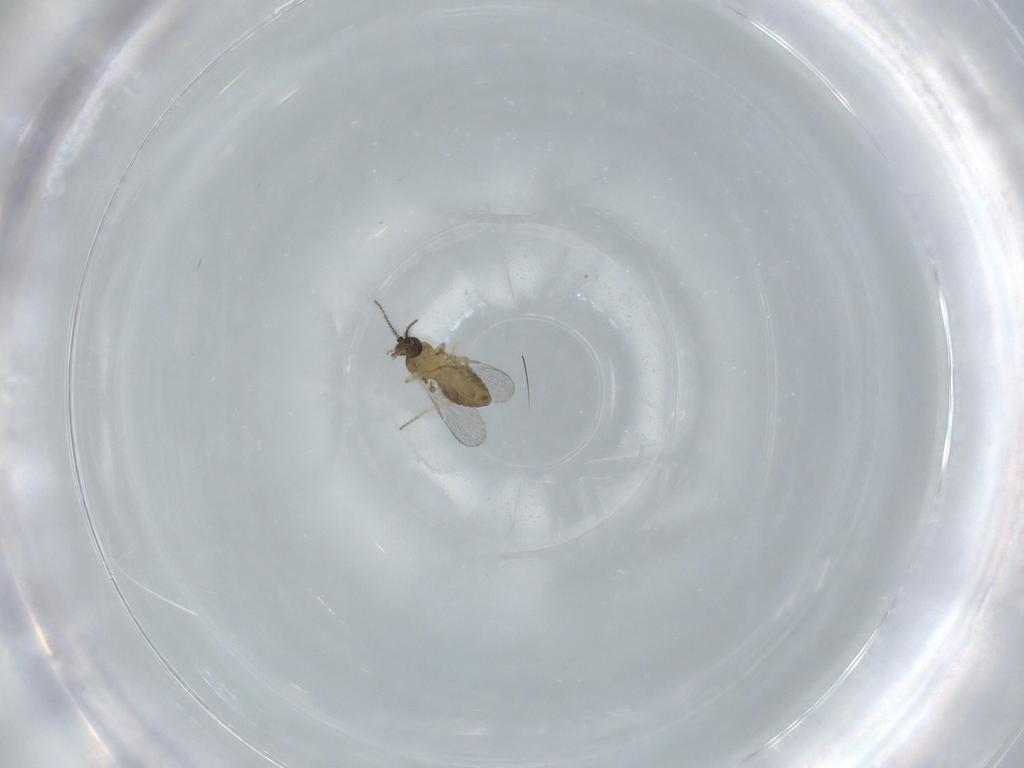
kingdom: Animalia
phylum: Arthropoda
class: Insecta
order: Diptera
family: Ceratopogonidae
